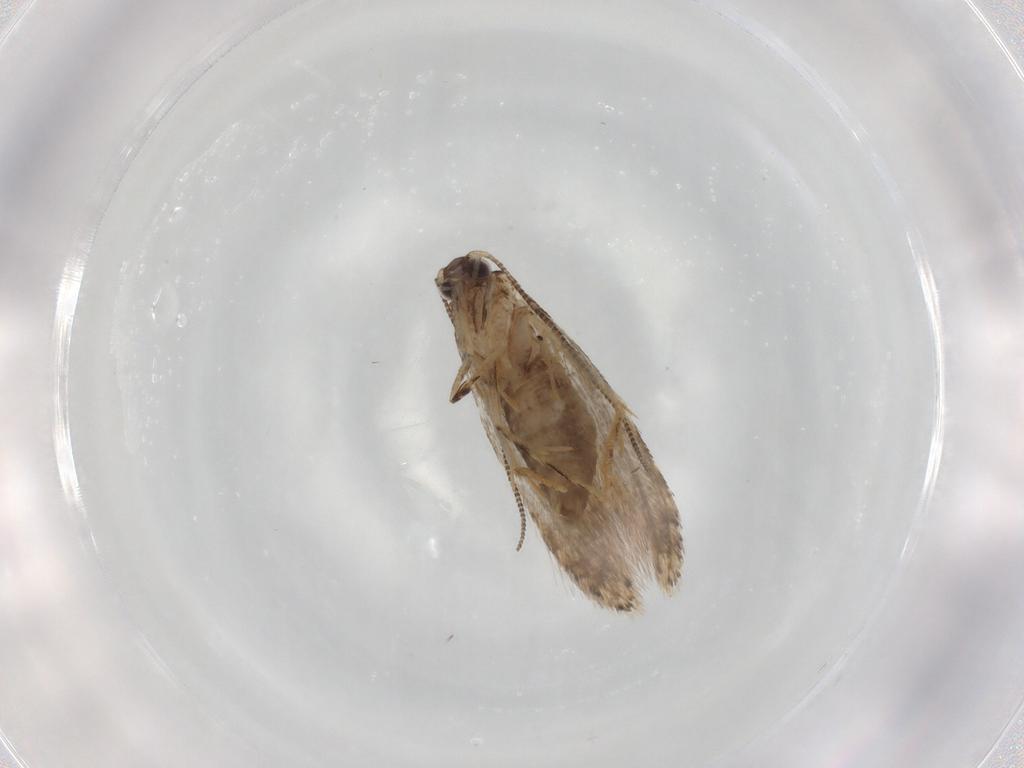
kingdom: Animalia
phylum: Arthropoda
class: Insecta
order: Lepidoptera
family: Tineidae
